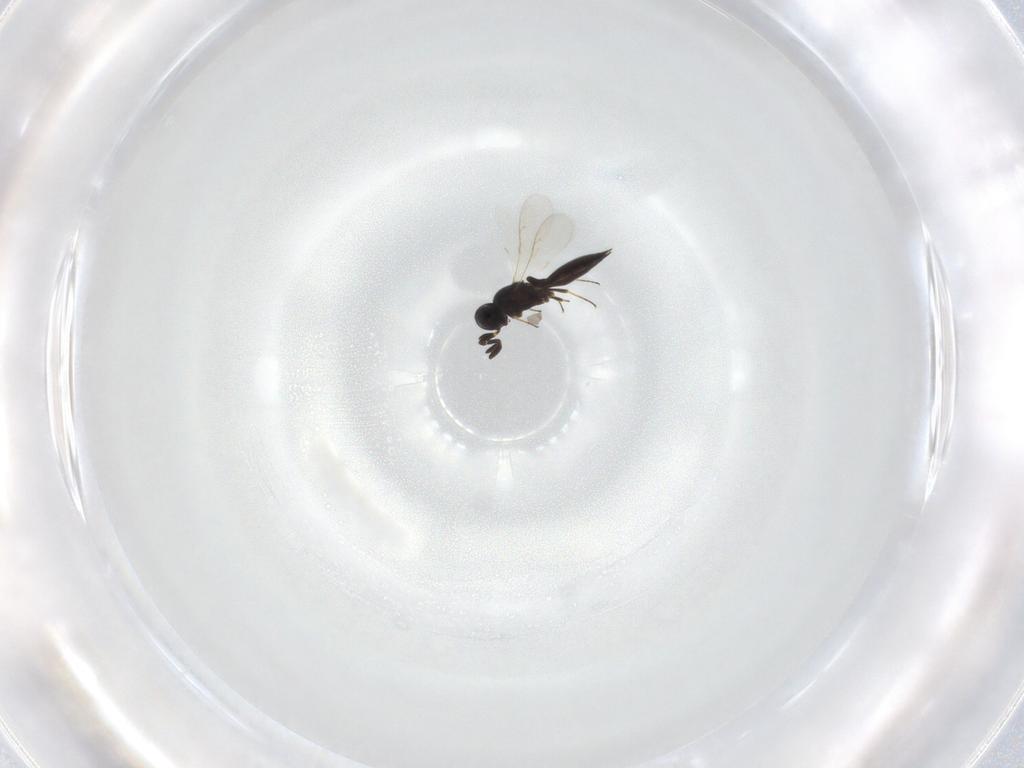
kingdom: Animalia
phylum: Arthropoda
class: Insecta
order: Hymenoptera
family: Scelionidae
